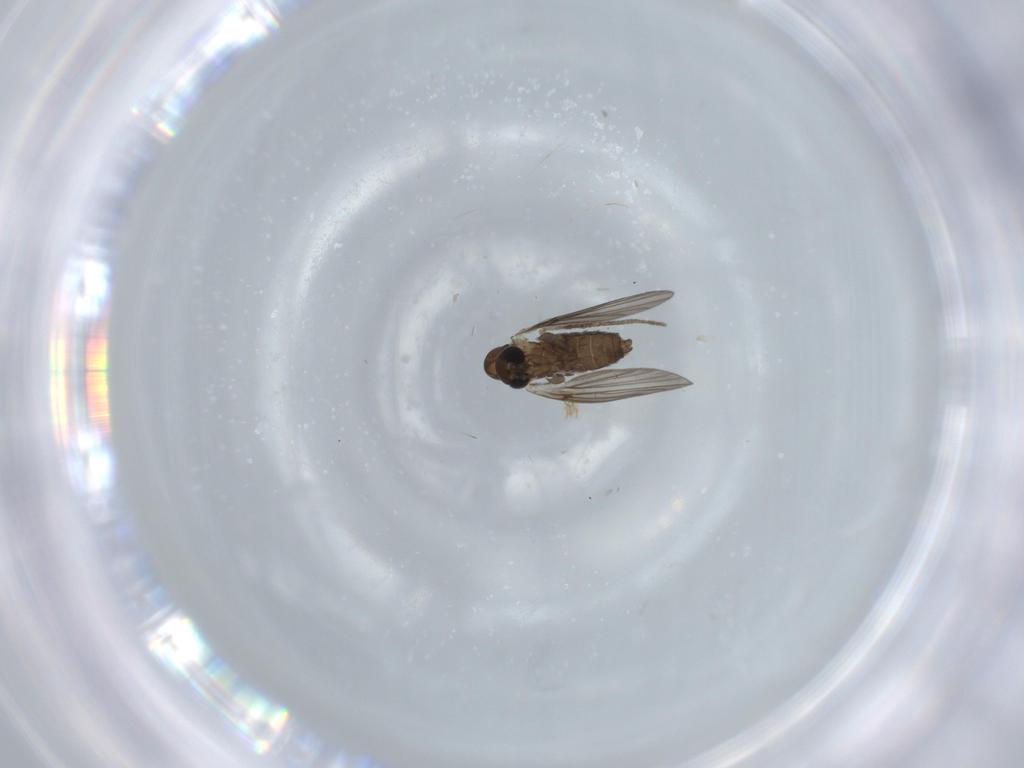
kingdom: Animalia
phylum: Arthropoda
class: Insecta
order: Diptera
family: Psychodidae
